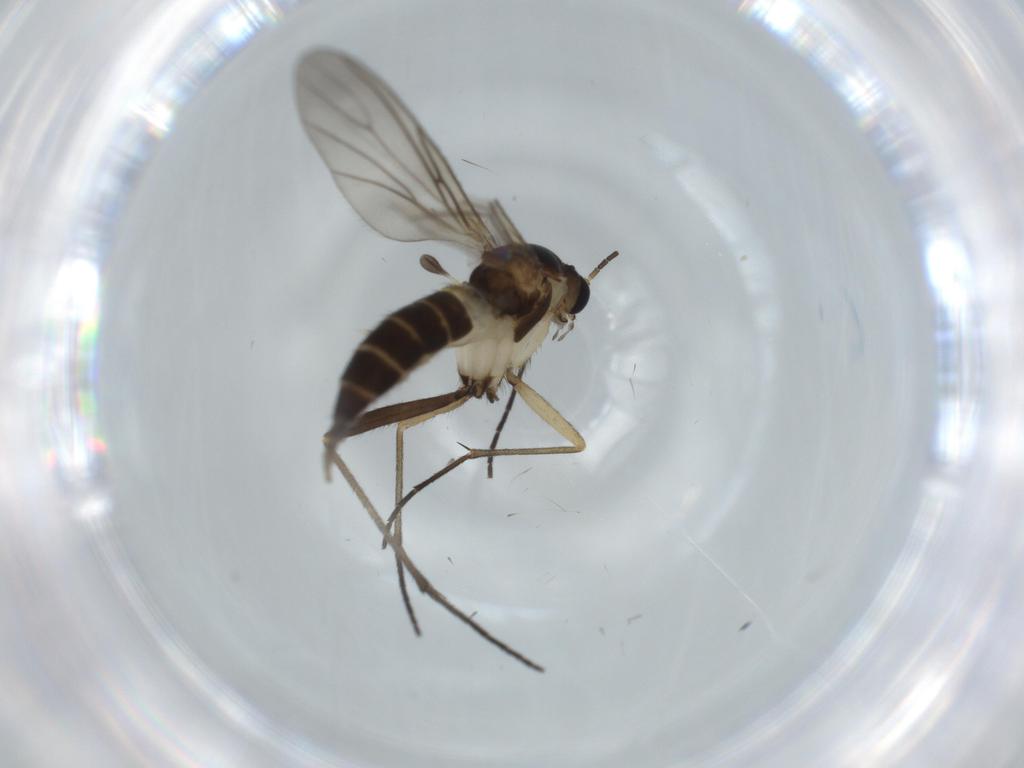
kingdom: Animalia
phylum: Arthropoda
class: Insecta
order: Diptera
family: Sciaridae
